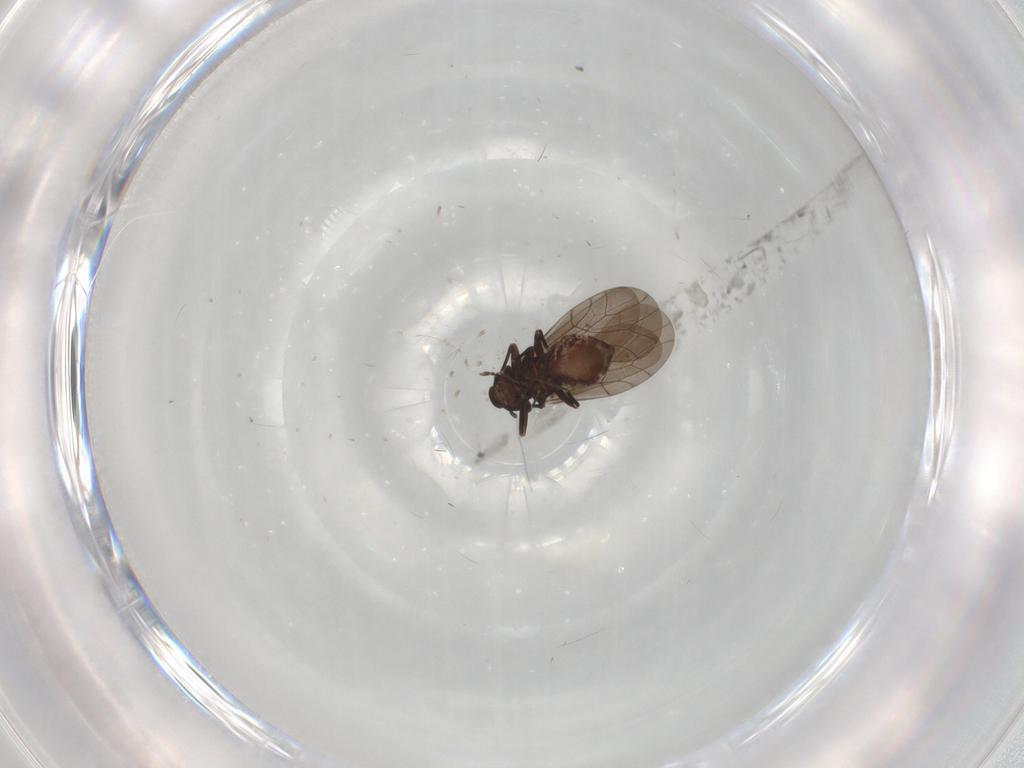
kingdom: Animalia
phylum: Arthropoda
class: Insecta
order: Psocodea
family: Lepidopsocidae
